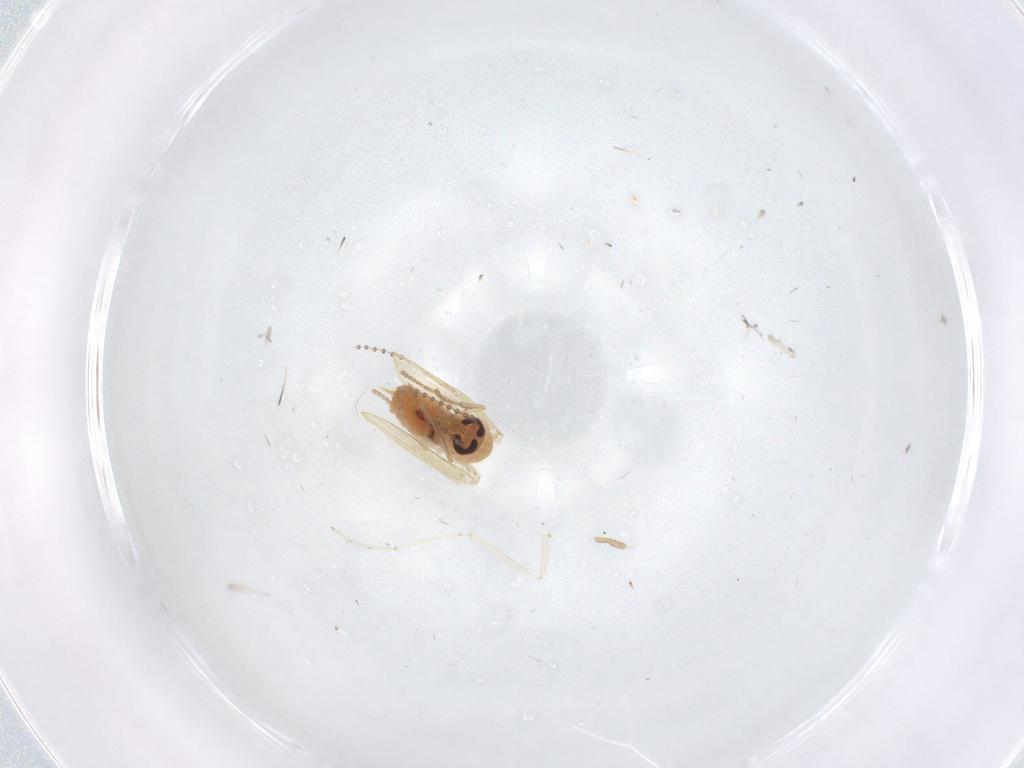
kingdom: Animalia
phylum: Arthropoda
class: Insecta
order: Diptera
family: Psychodidae
